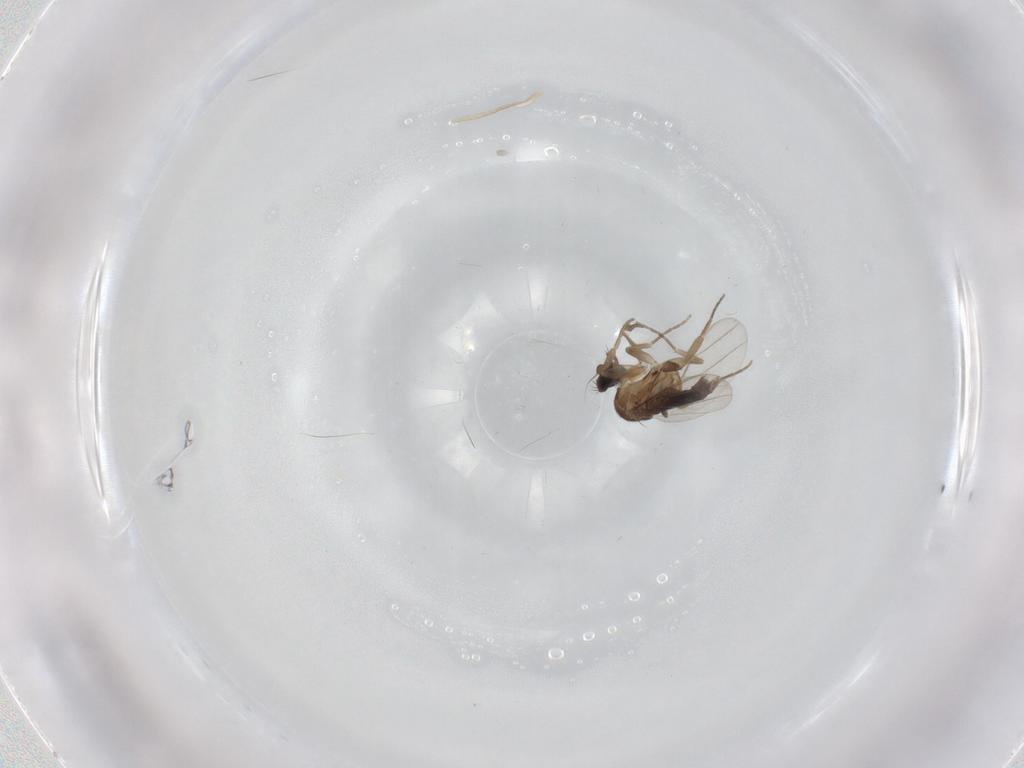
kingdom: Animalia
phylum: Arthropoda
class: Insecta
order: Diptera
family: Phoridae
